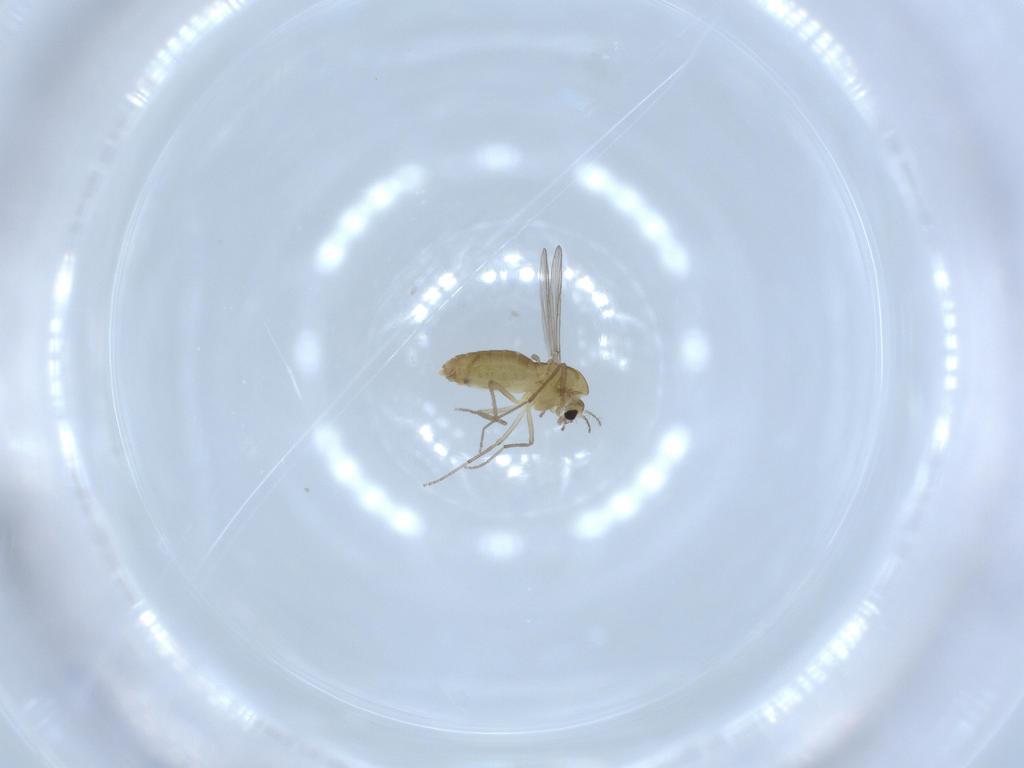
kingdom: Animalia
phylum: Arthropoda
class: Insecta
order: Diptera
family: Chironomidae
